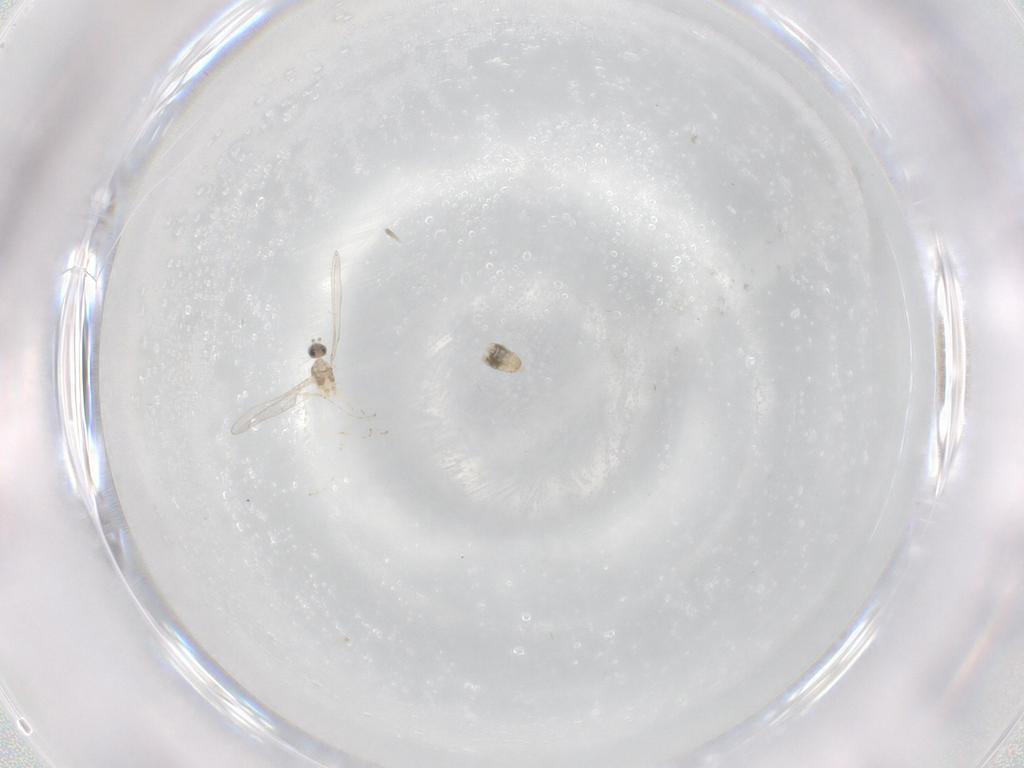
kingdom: Animalia
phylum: Arthropoda
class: Insecta
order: Diptera
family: Cecidomyiidae
